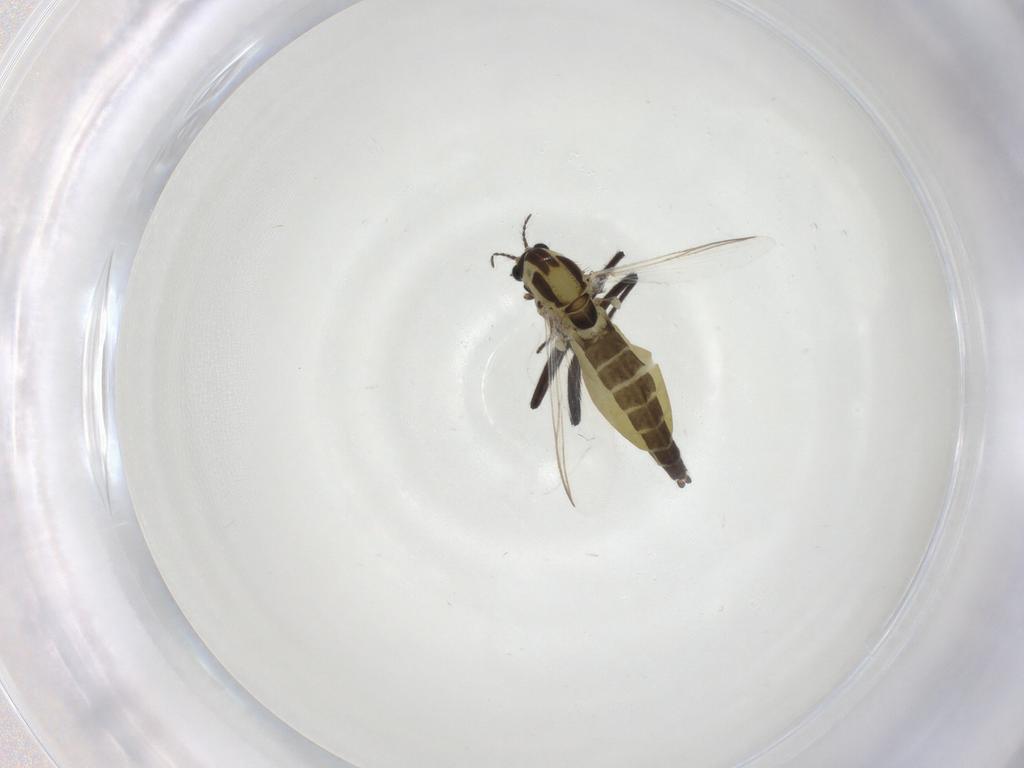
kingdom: Animalia
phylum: Arthropoda
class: Insecta
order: Diptera
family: Chironomidae
